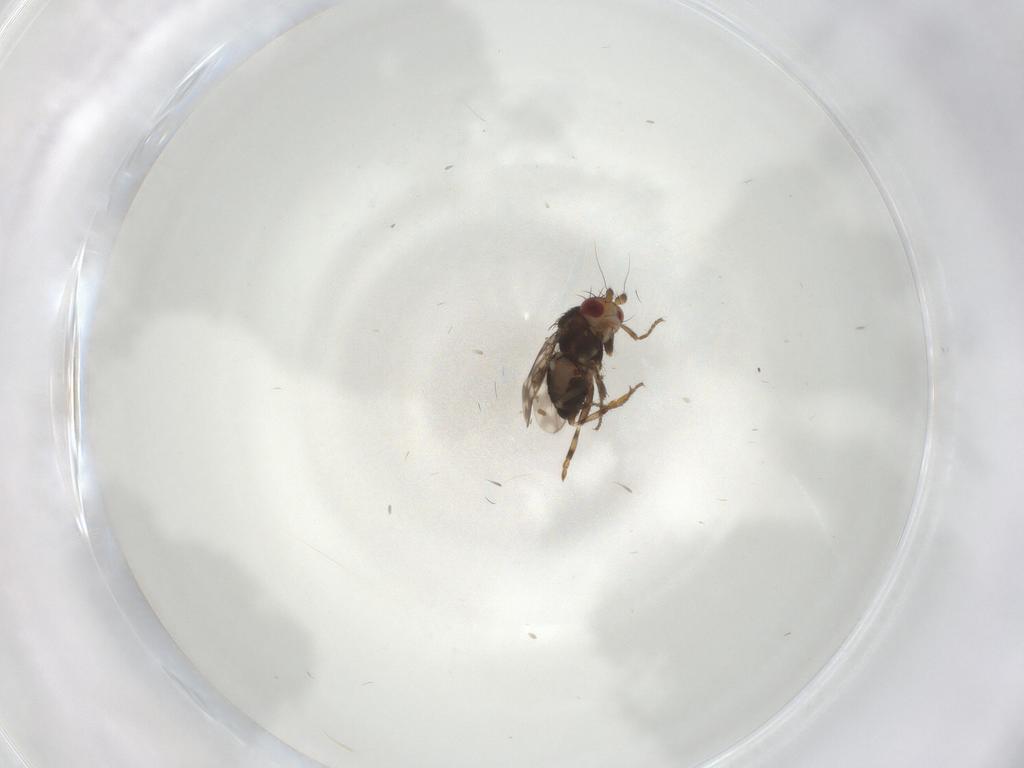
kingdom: Animalia
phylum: Arthropoda
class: Insecta
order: Diptera
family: Sphaeroceridae
